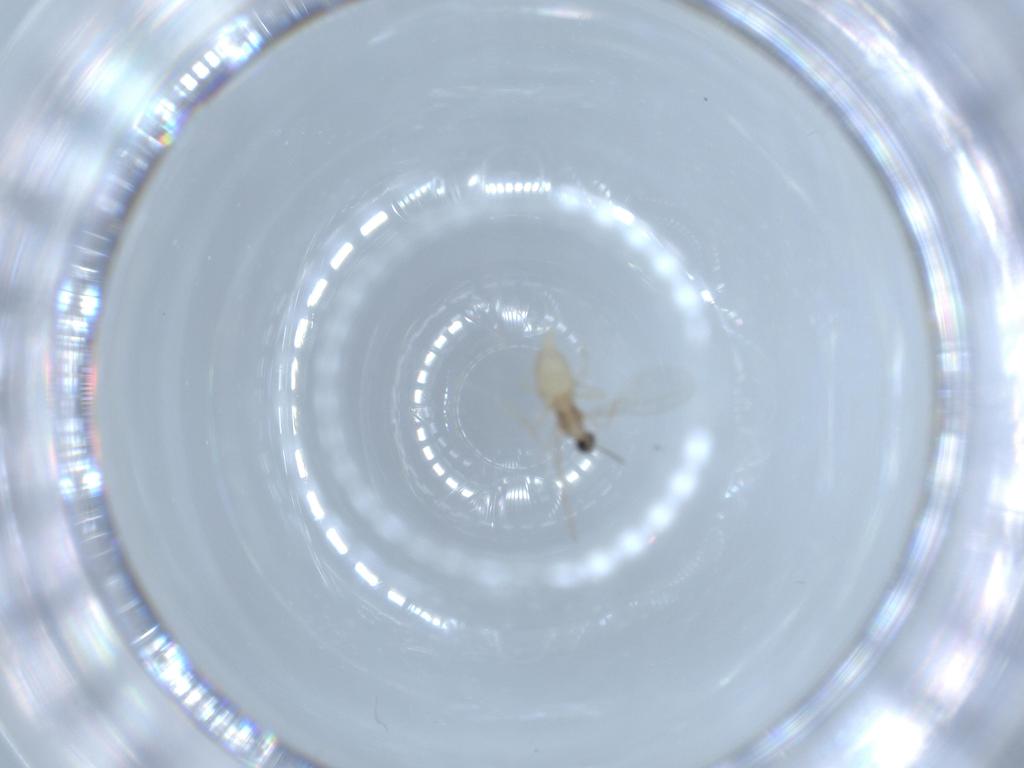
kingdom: Animalia
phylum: Arthropoda
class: Insecta
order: Diptera
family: Cecidomyiidae
